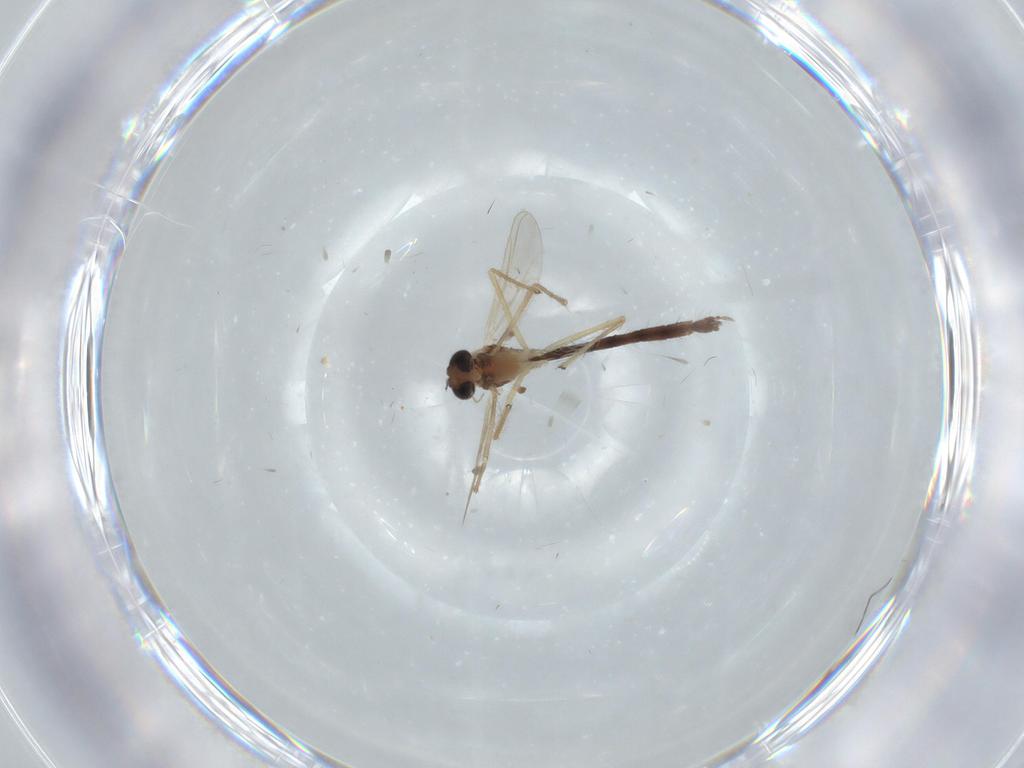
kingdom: Animalia
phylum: Arthropoda
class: Insecta
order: Diptera
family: Chironomidae
